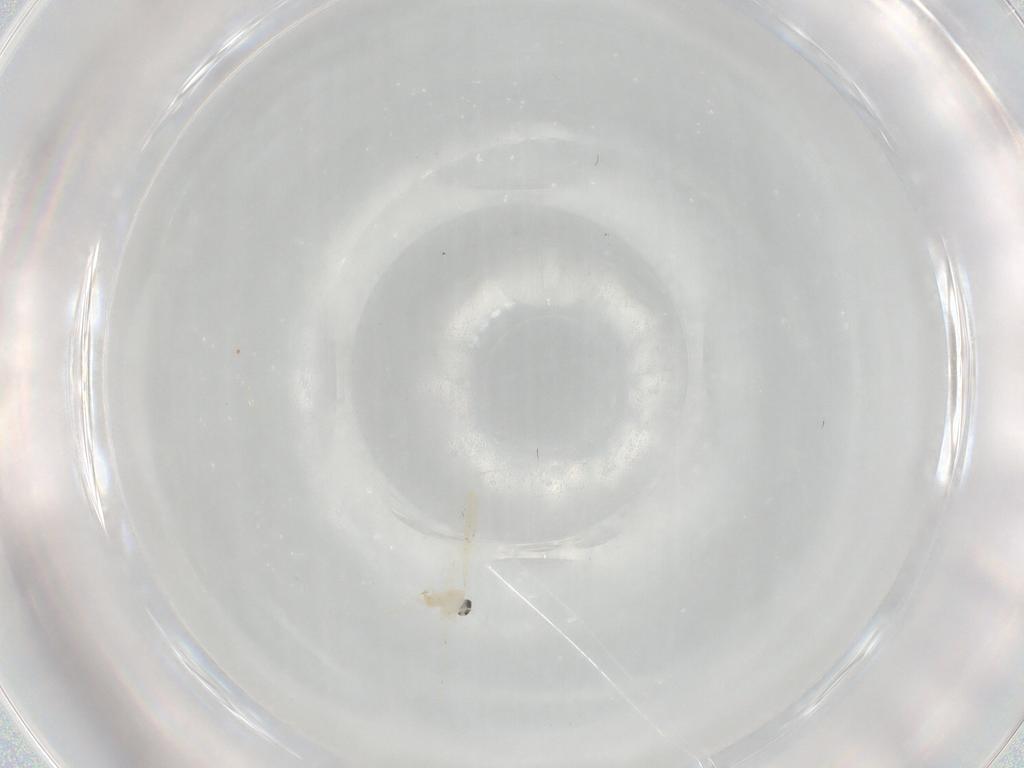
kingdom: Animalia
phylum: Arthropoda
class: Insecta
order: Diptera
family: Cecidomyiidae
